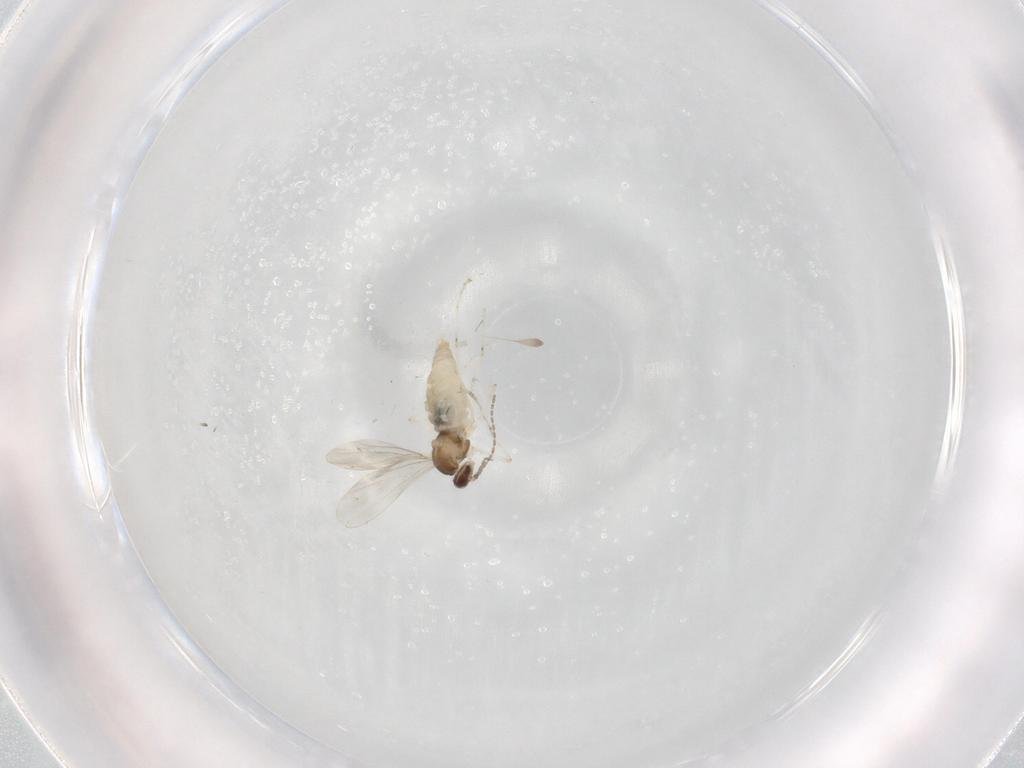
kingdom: Animalia
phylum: Arthropoda
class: Insecta
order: Diptera
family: Cecidomyiidae
